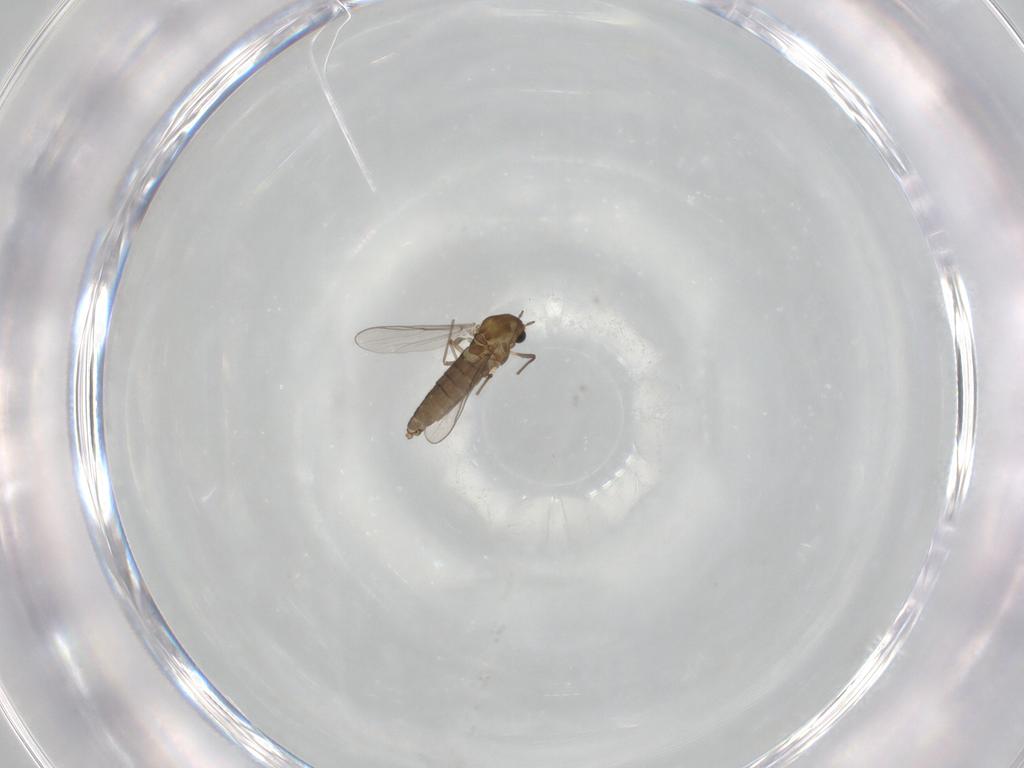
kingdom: Animalia
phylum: Arthropoda
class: Insecta
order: Diptera
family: Chironomidae
